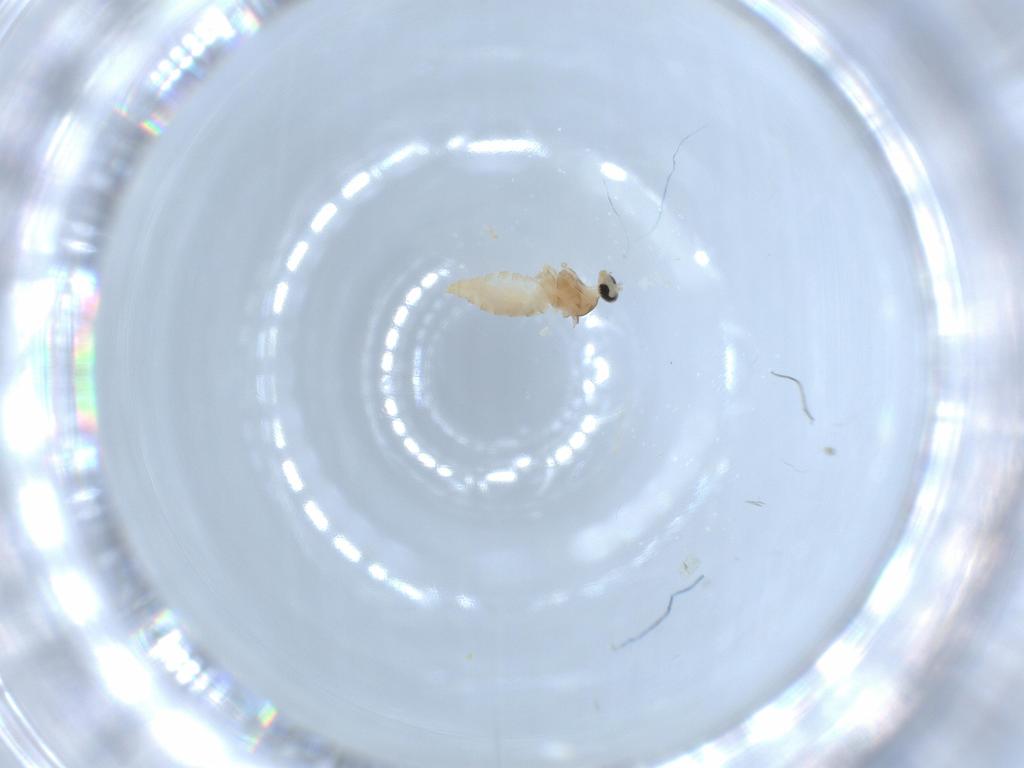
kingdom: Animalia
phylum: Arthropoda
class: Insecta
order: Diptera
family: Cecidomyiidae
